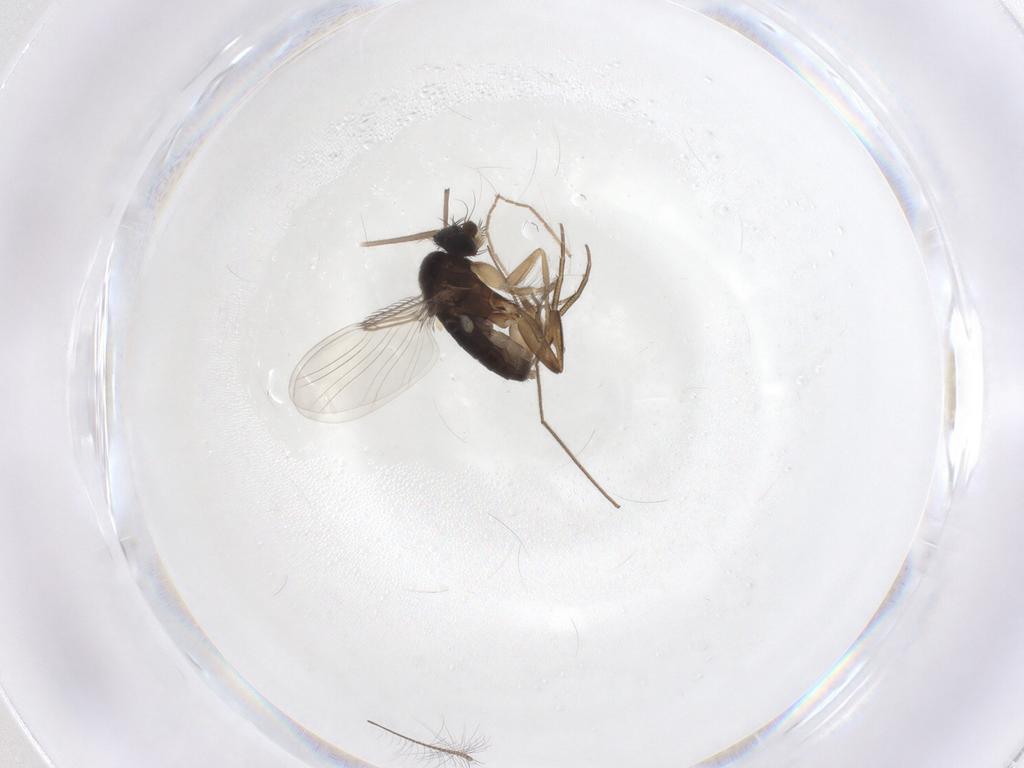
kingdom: Animalia
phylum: Arthropoda
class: Insecta
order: Diptera
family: Phoridae
